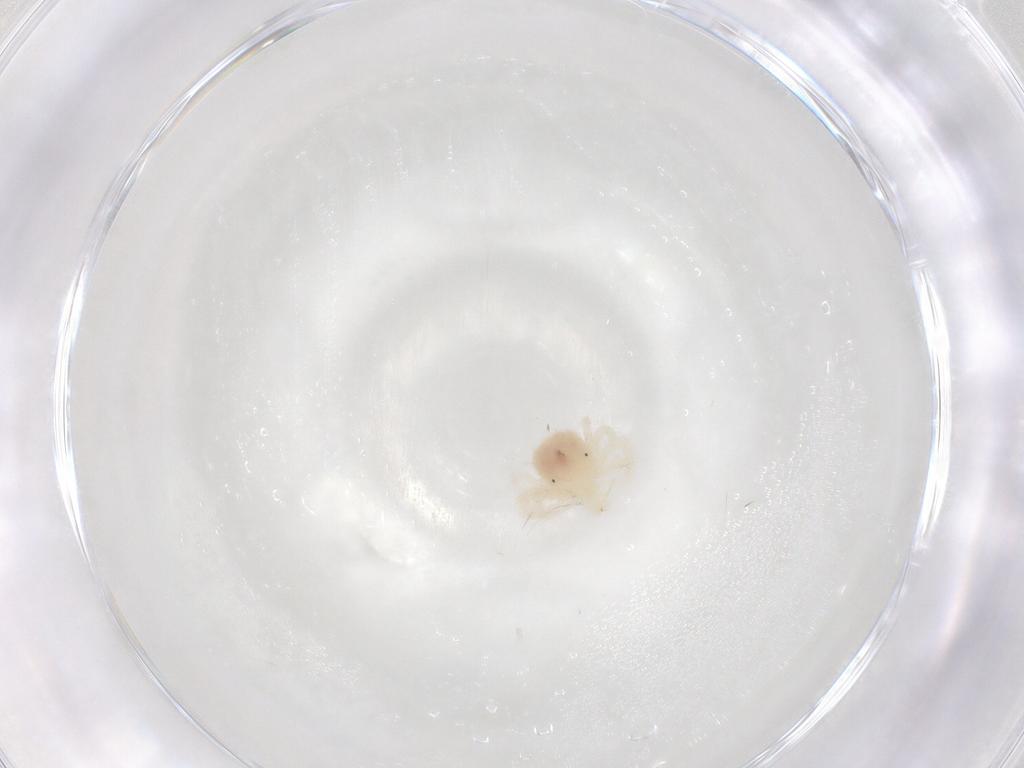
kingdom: Animalia
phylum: Arthropoda
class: Arachnida
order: Trombidiformes
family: Anystidae
